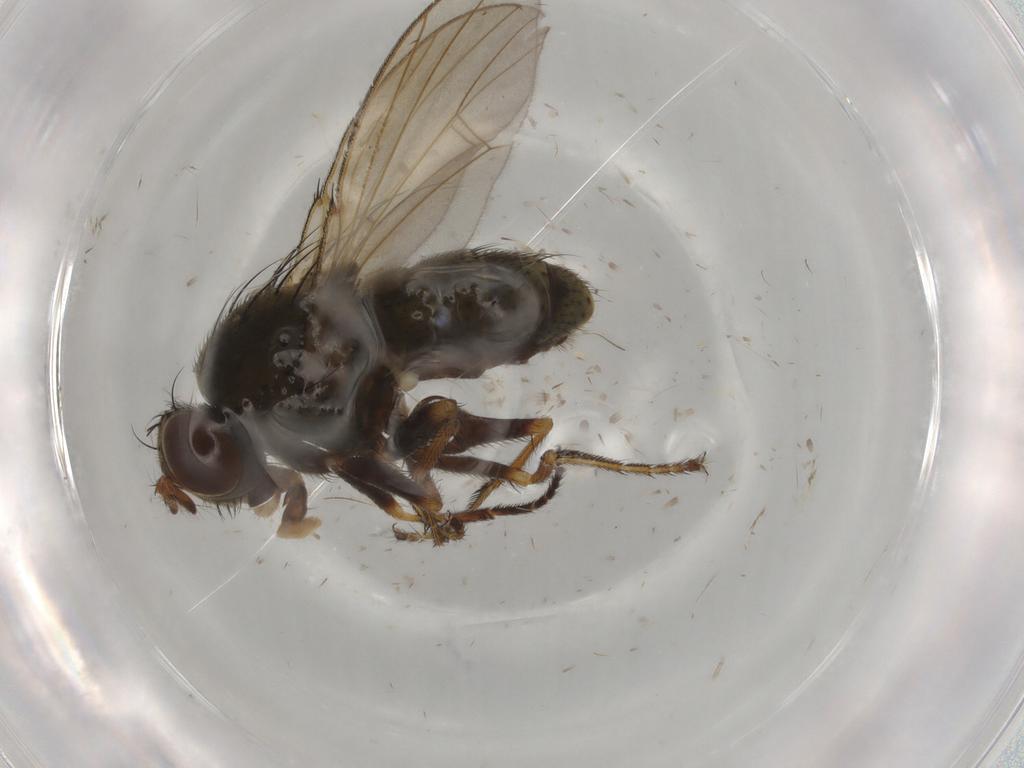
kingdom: Animalia
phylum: Arthropoda
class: Insecta
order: Diptera
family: Ephydridae
